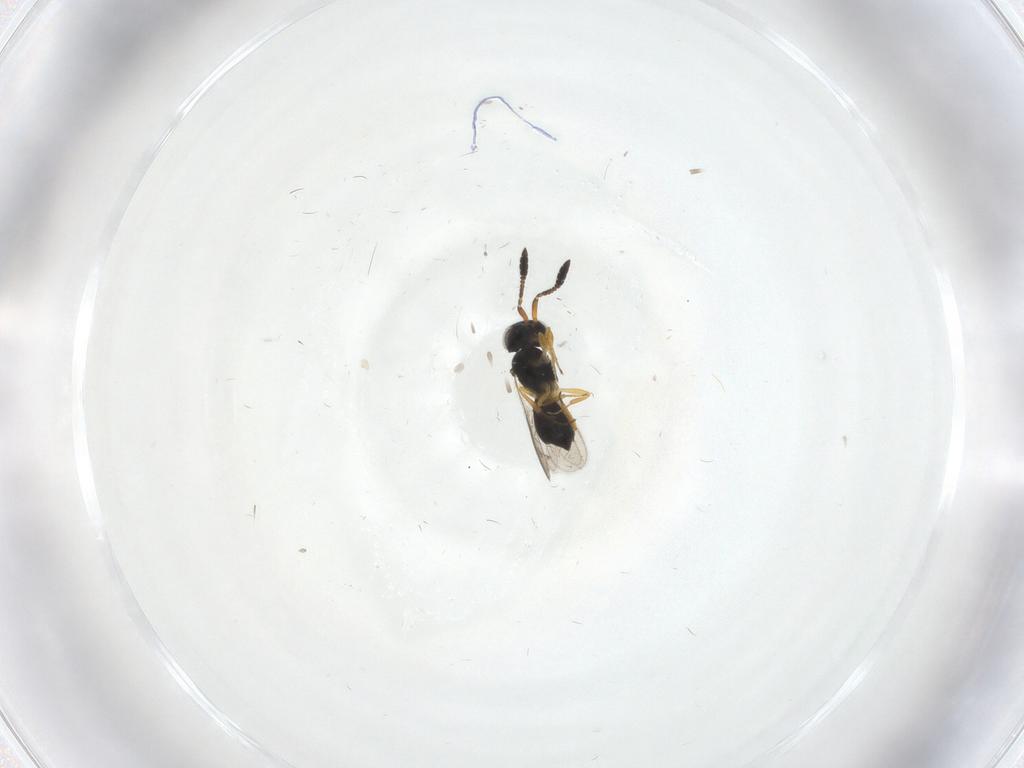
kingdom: Animalia
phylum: Arthropoda
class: Insecta
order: Hymenoptera
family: Scelionidae
